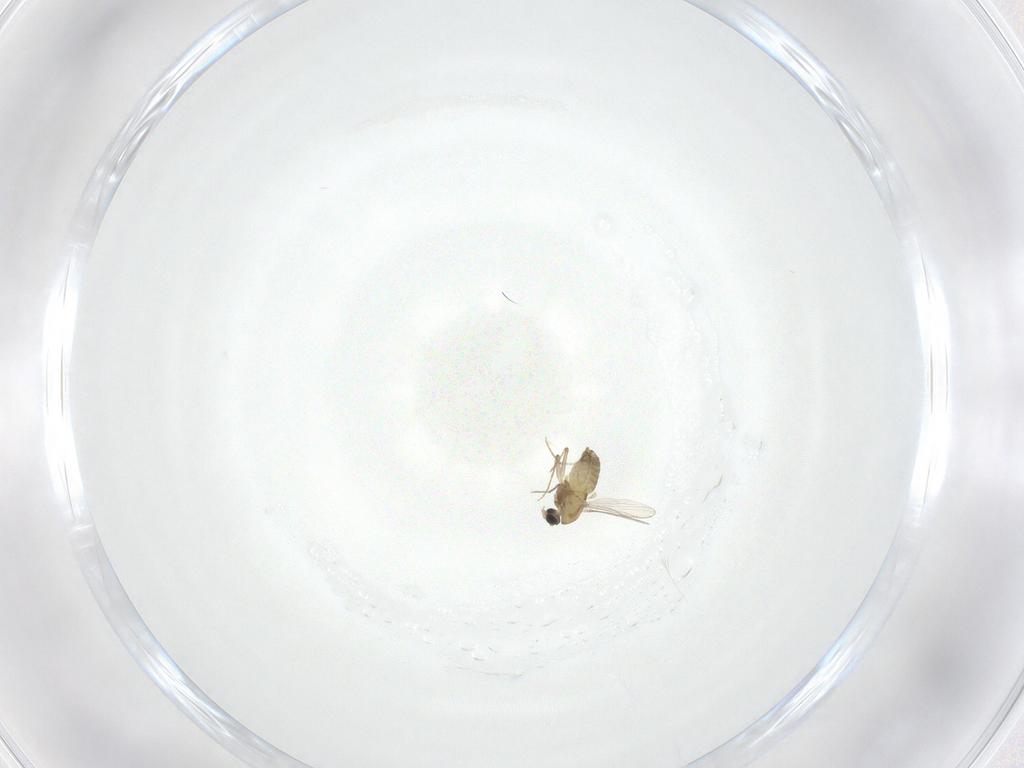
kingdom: Animalia
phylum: Arthropoda
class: Insecta
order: Diptera
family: Chironomidae
